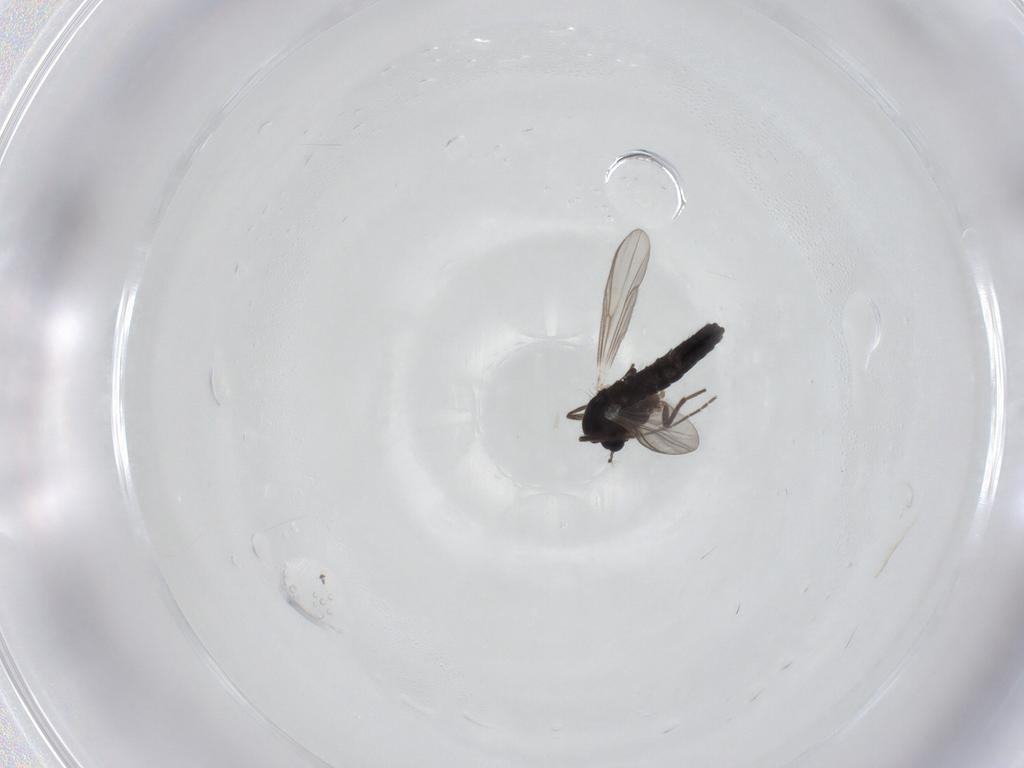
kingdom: Animalia
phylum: Arthropoda
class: Insecta
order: Diptera
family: Chironomidae
